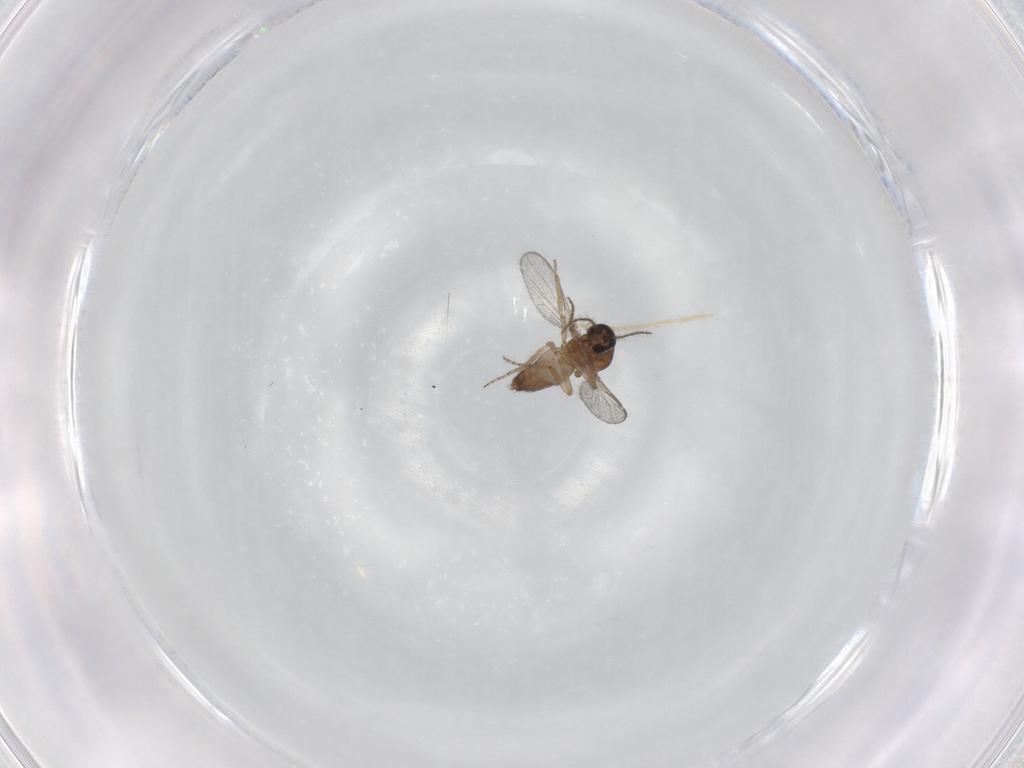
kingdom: Animalia
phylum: Arthropoda
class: Insecta
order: Diptera
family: Chironomidae
